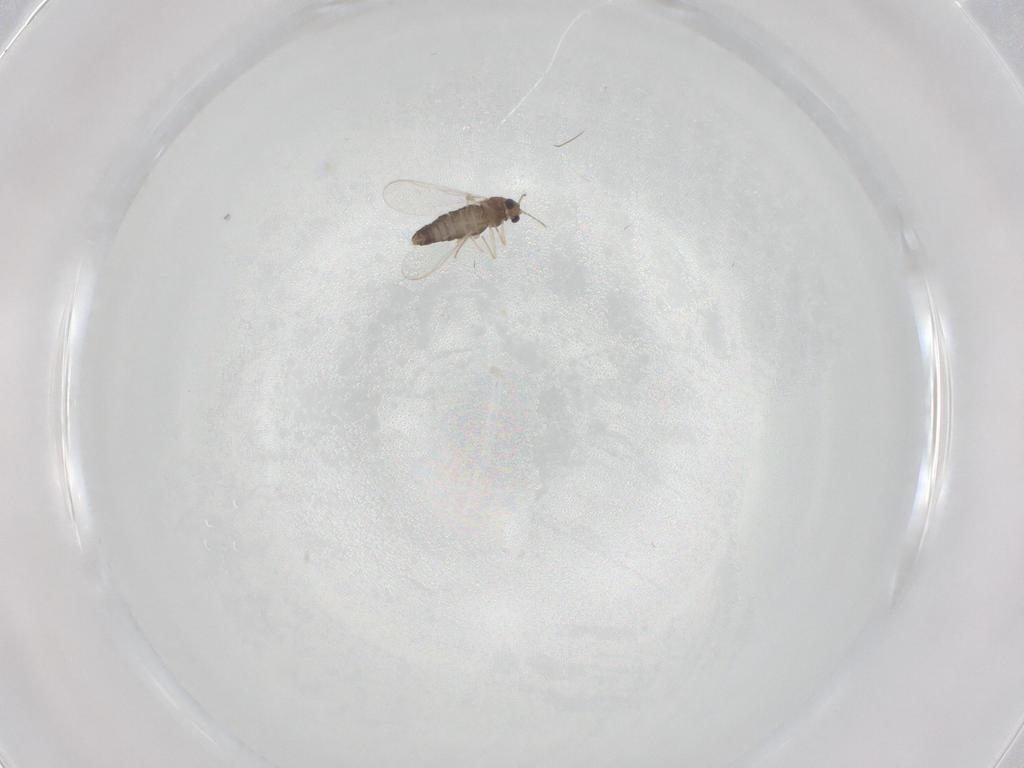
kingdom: Animalia
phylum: Arthropoda
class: Insecta
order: Diptera
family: Chironomidae
